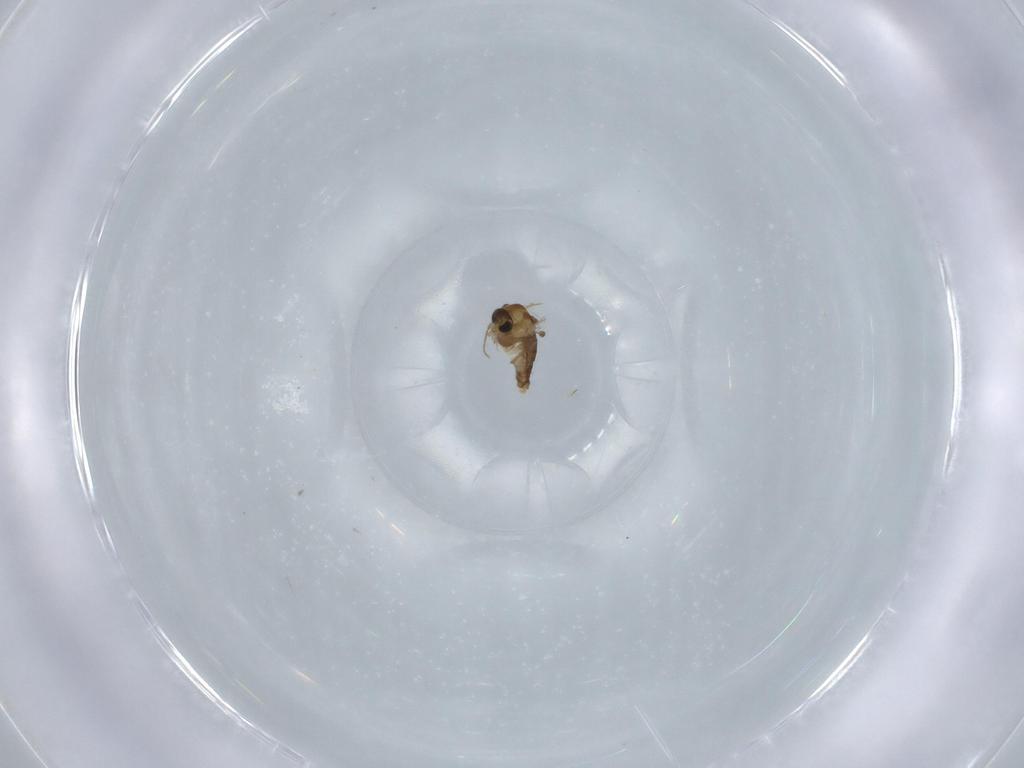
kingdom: Animalia
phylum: Arthropoda
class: Insecta
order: Diptera
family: Chironomidae
